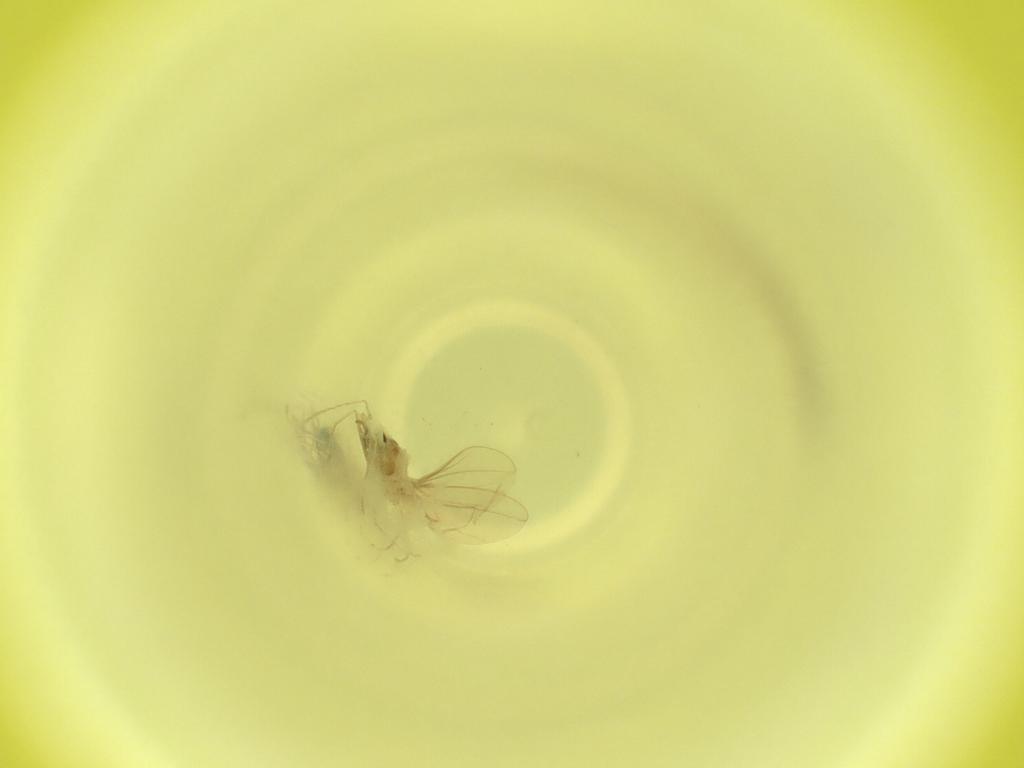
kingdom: Animalia
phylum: Arthropoda
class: Insecta
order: Diptera
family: Cecidomyiidae
